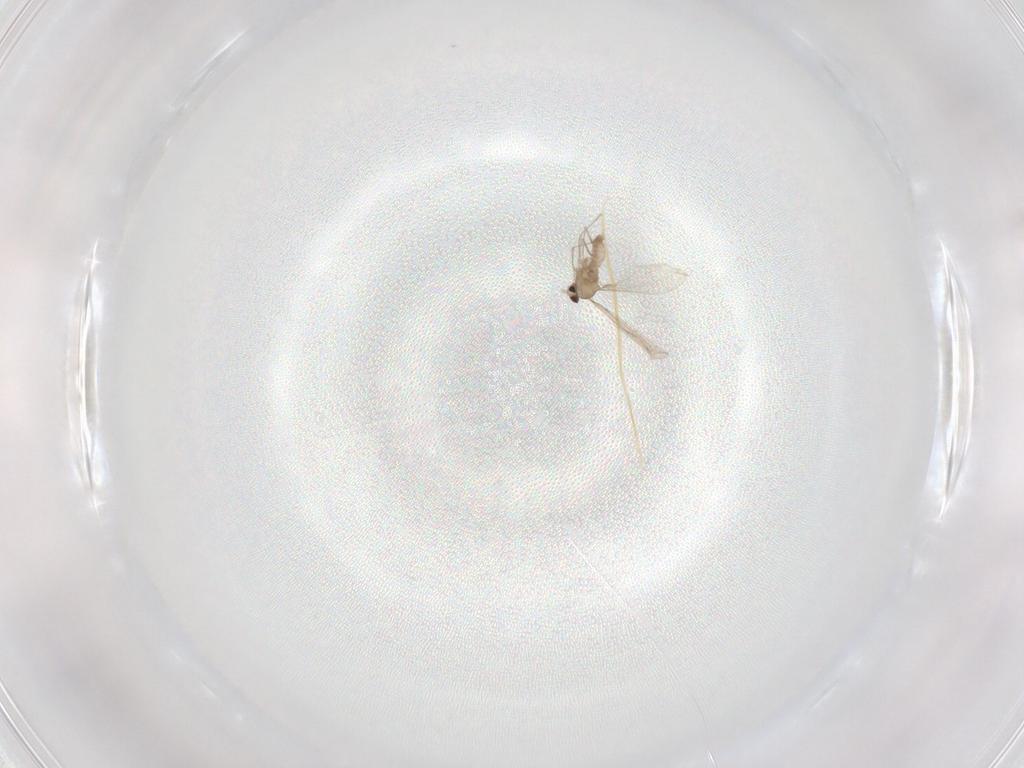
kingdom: Animalia
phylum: Arthropoda
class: Insecta
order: Diptera
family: Cecidomyiidae
